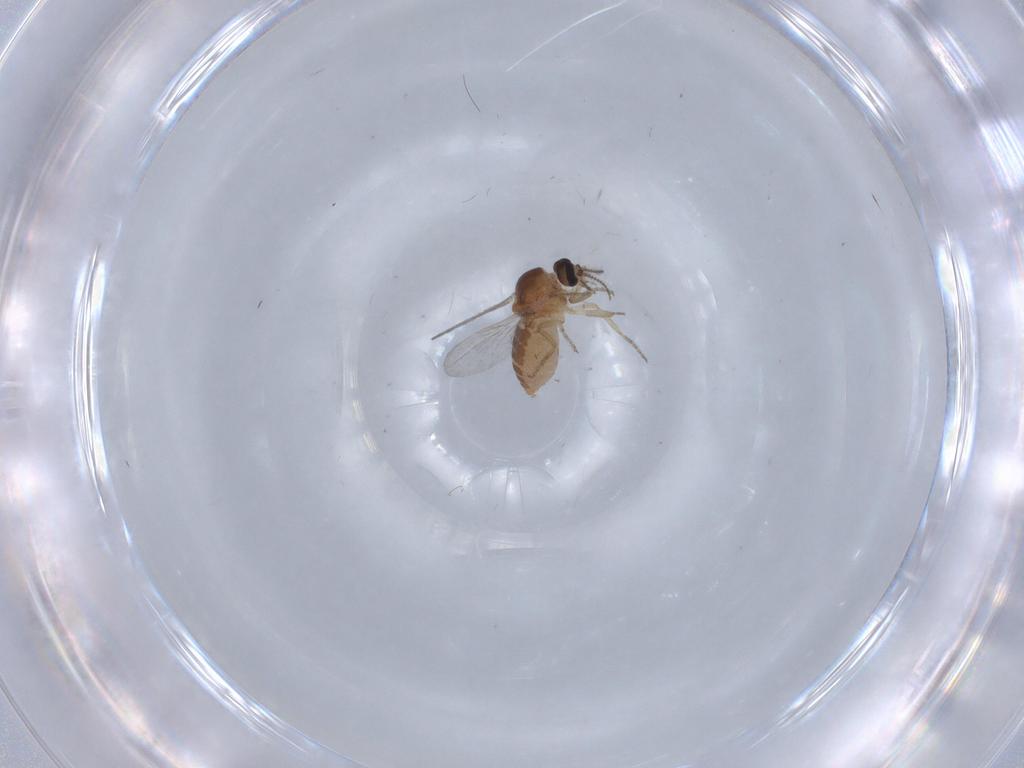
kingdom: Animalia
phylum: Arthropoda
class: Insecta
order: Diptera
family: Ceratopogonidae
